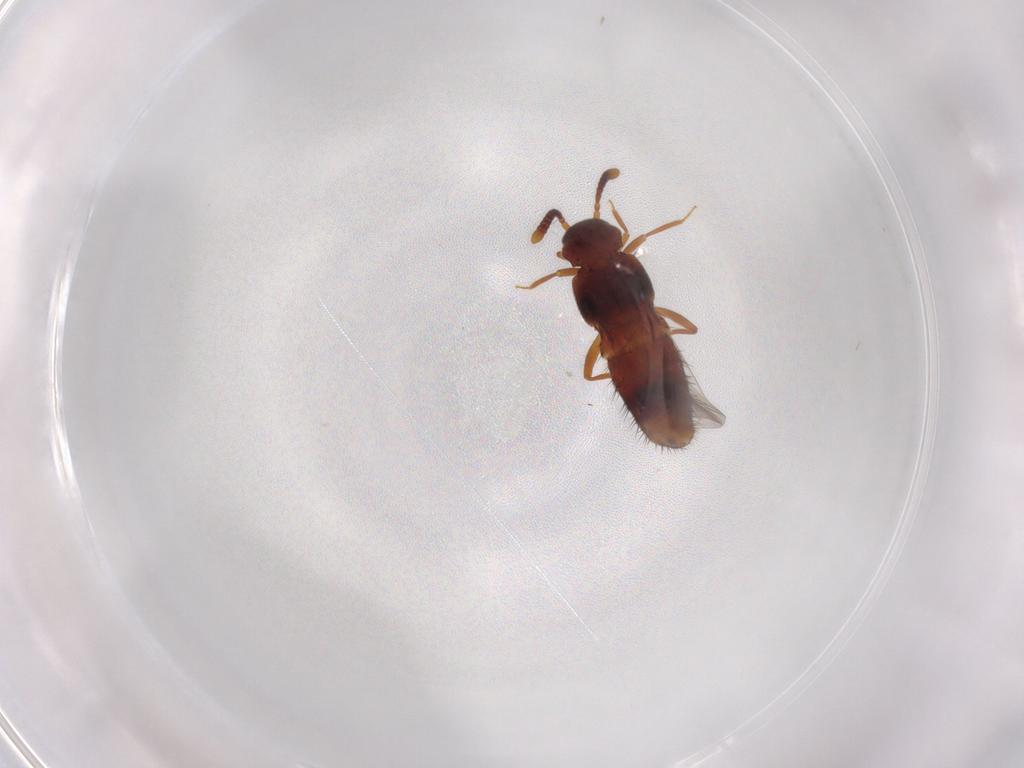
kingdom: Animalia
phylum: Arthropoda
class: Insecta
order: Coleoptera
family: Staphylinidae
